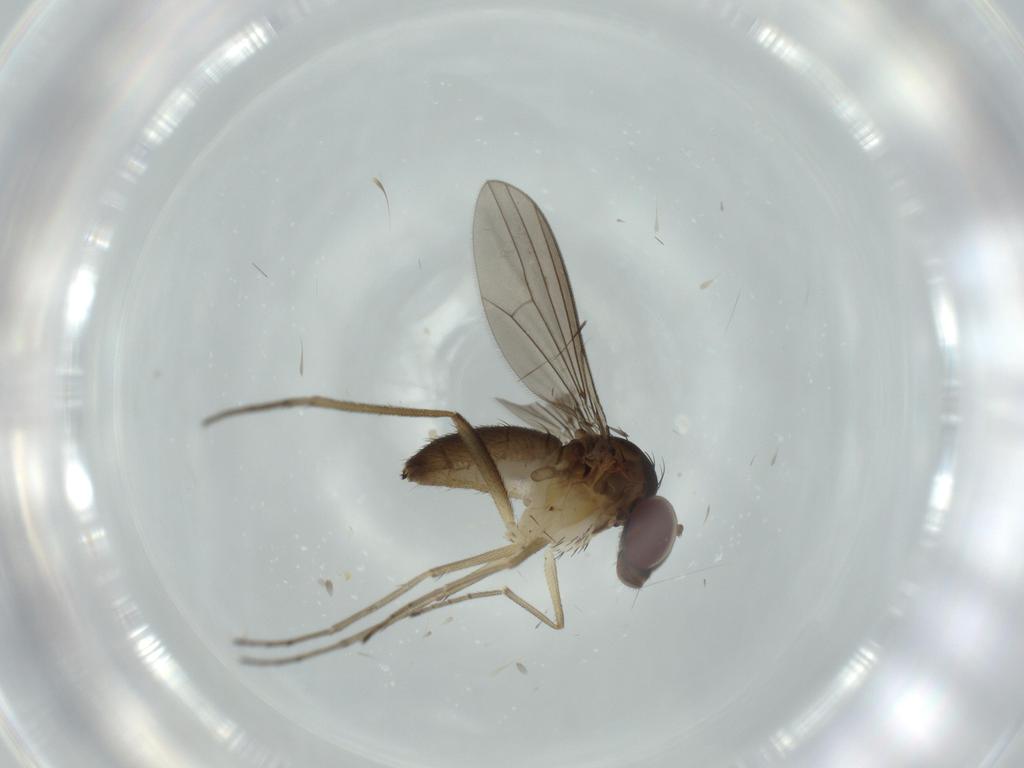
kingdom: Animalia
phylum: Arthropoda
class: Insecta
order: Diptera
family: Dolichopodidae
